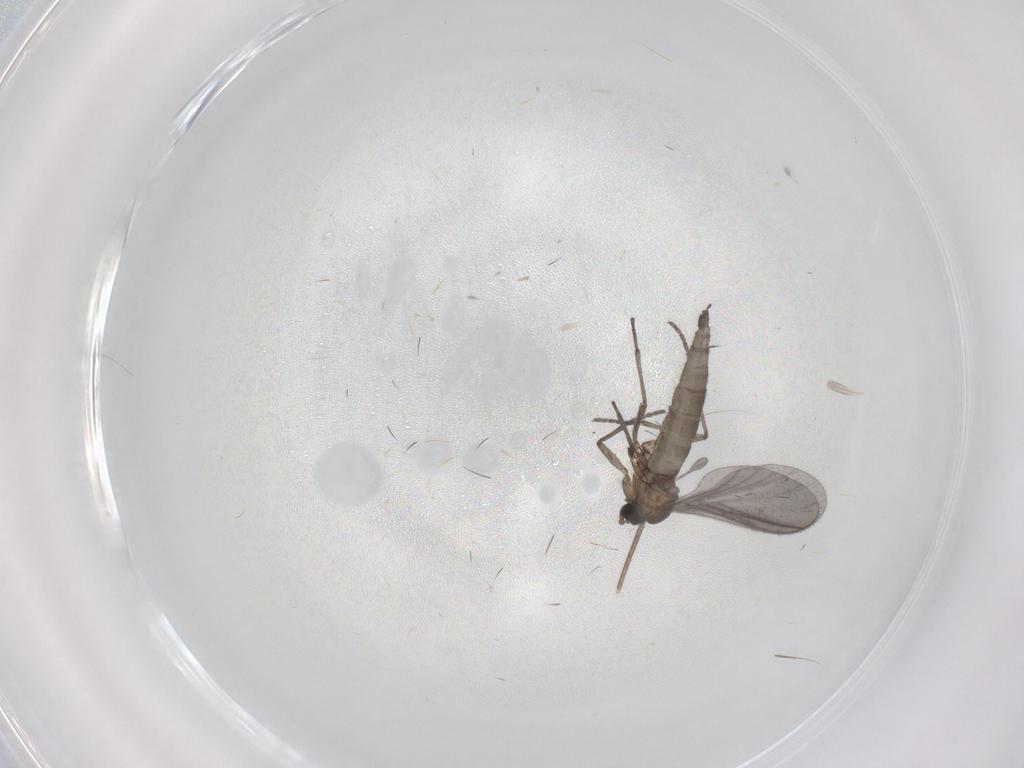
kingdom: Animalia
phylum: Arthropoda
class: Insecta
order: Diptera
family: Sciaridae
